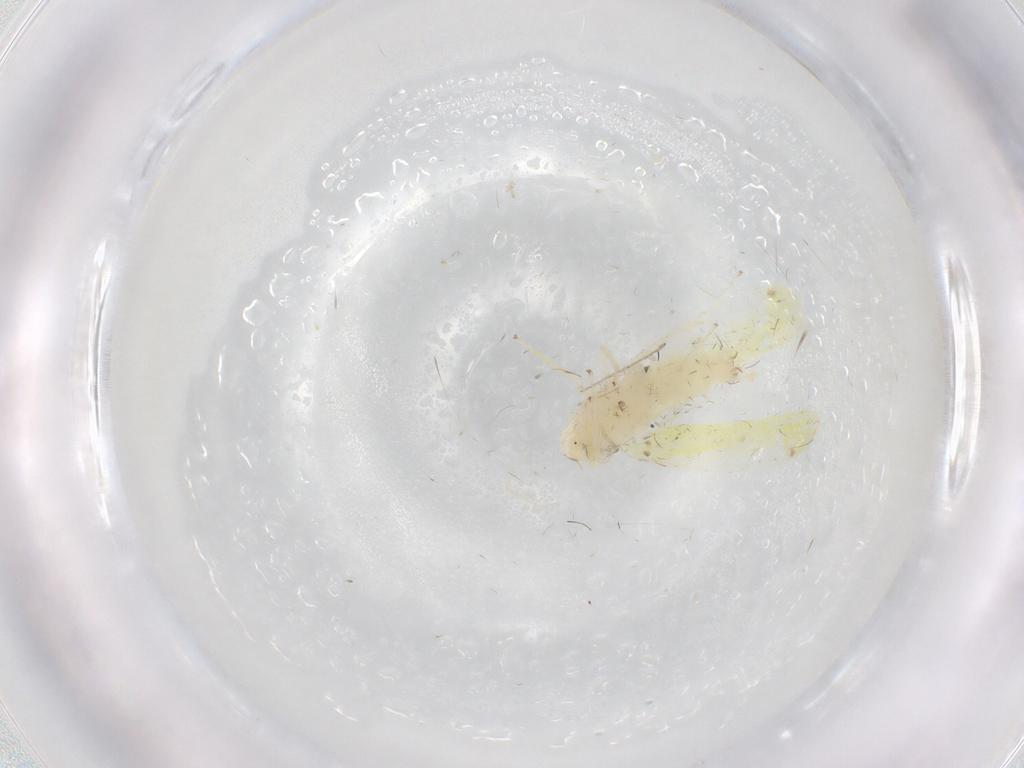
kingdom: Animalia
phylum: Arthropoda
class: Insecta
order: Hemiptera
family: Cicadellidae
